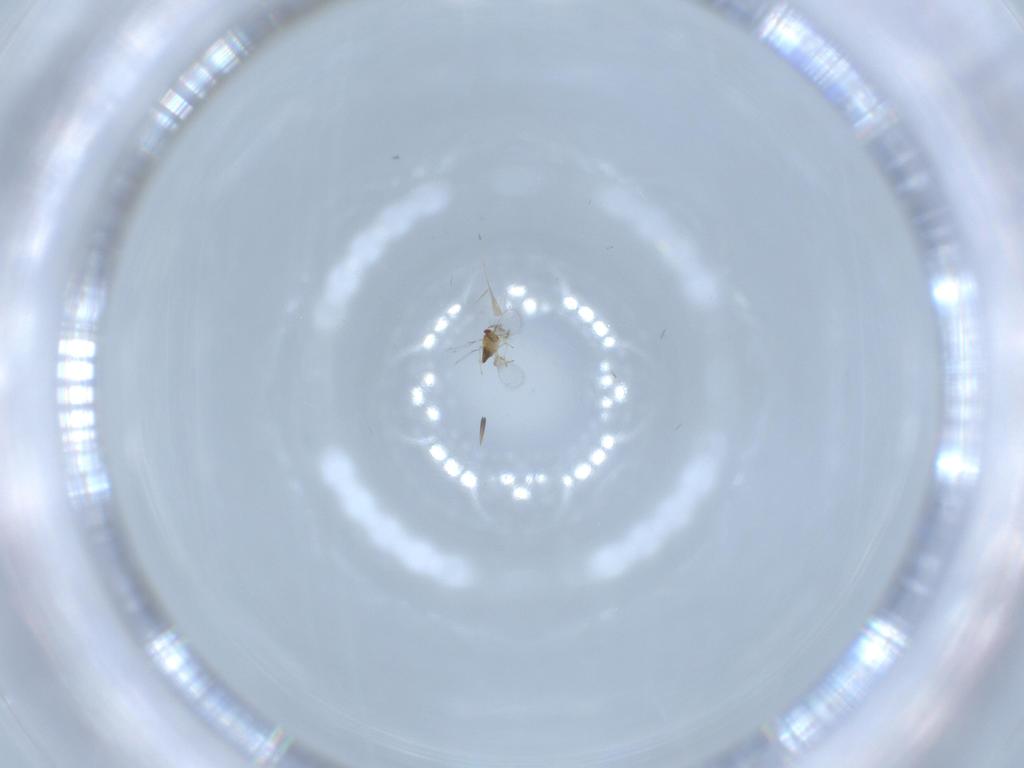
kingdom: Animalia
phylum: Arthropoda
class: Insecta
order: Hymenoptera
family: Trichogrammatidae
